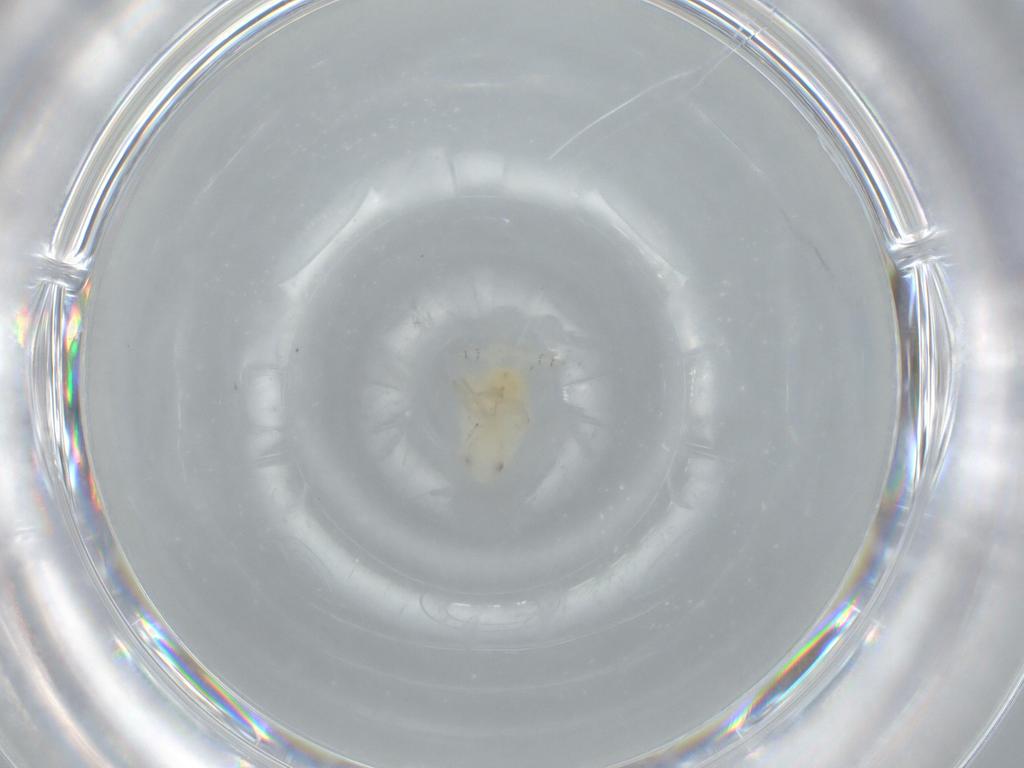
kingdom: Animalia
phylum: Arthropoda
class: Insecta
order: Hemiptera
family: Flatidae
